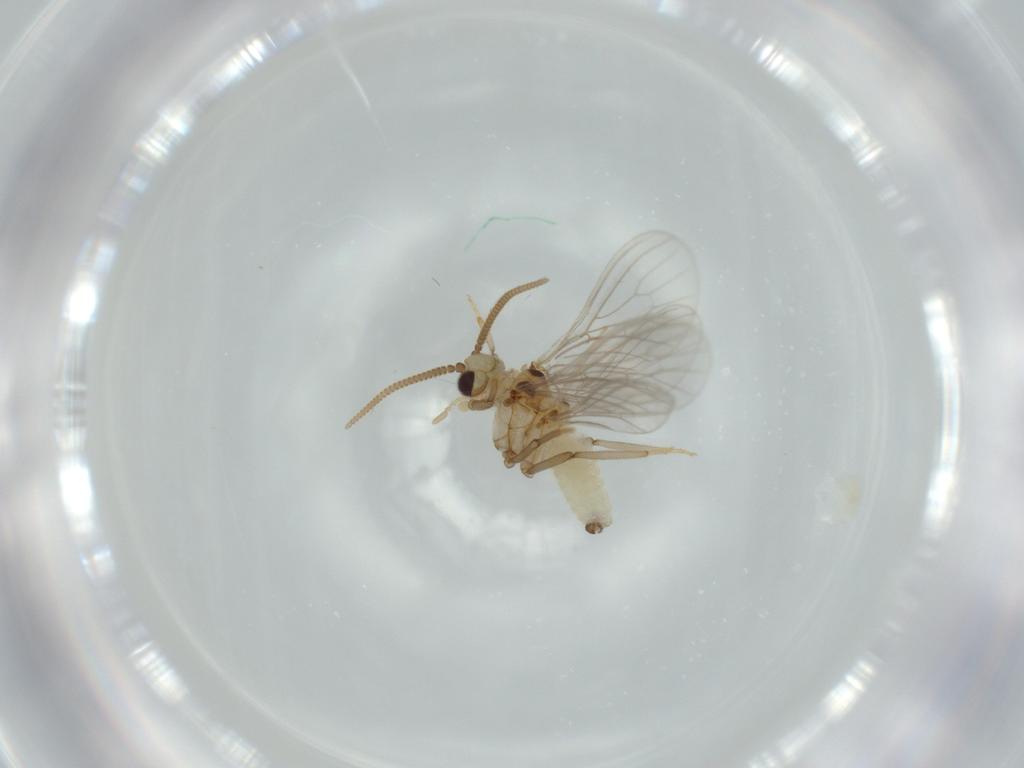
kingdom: Animalia
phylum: Arthropoda
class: Insecta
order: Neuroptera
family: Coniopterygidae
